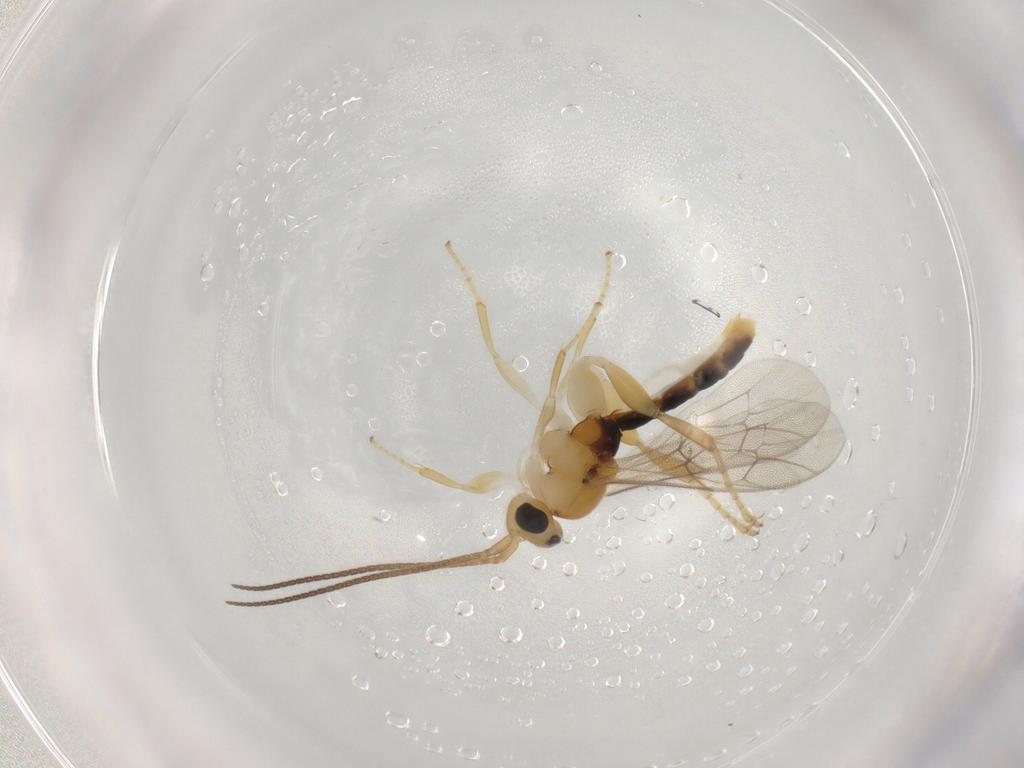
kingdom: Animalia
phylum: Arthropoda
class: Insecta
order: Hymenoptera
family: Ichneumonidae
